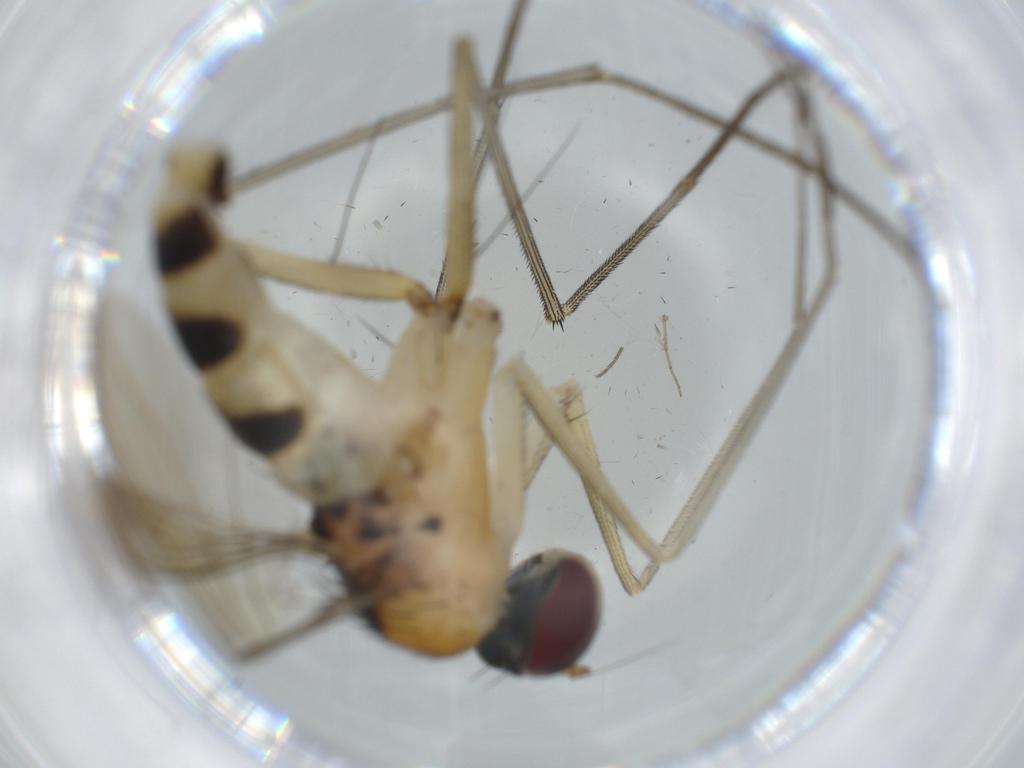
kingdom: Animalia
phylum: Arthropoda
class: Insecta
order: Diptera
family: Dolichopodidae
